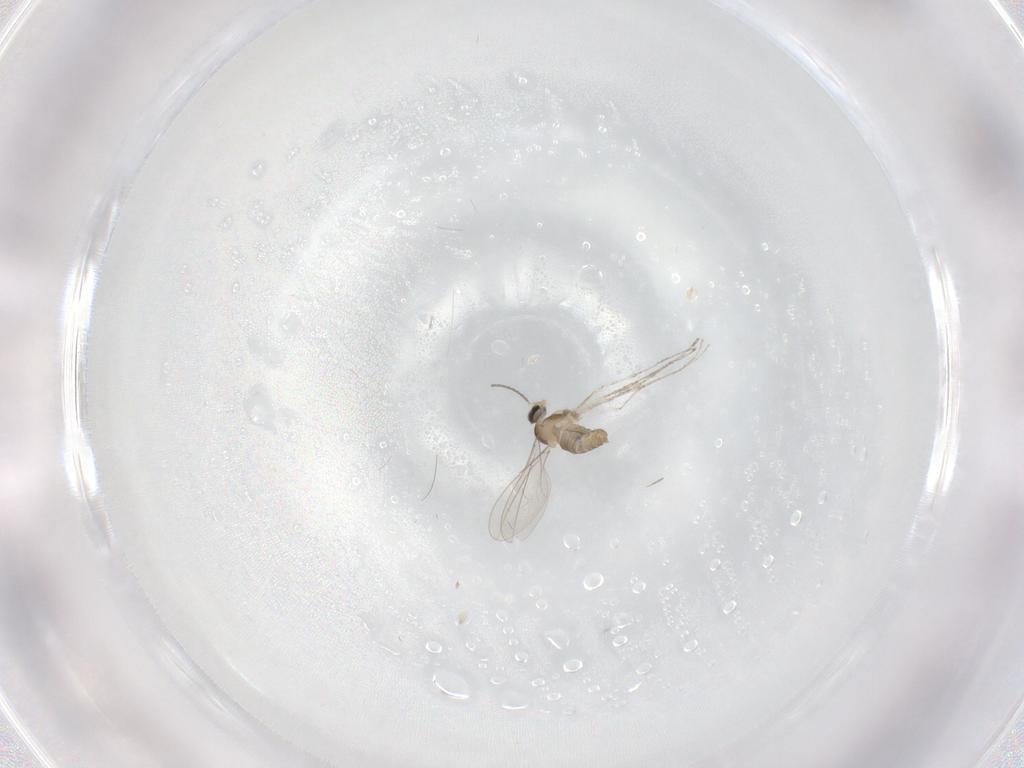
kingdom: Animalia
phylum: Arthropoda
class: Insecta
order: Diptera
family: Cecidomyiidae
